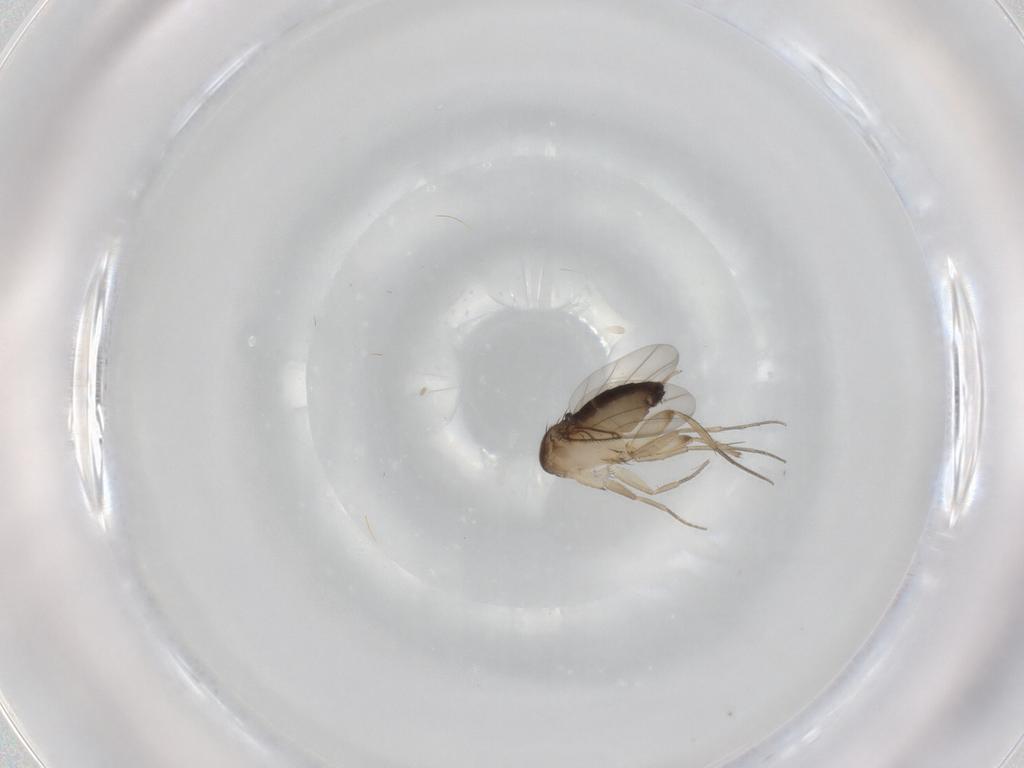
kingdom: Animalia
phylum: Arthropoda
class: Insecta
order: Diptera
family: Phoridae
